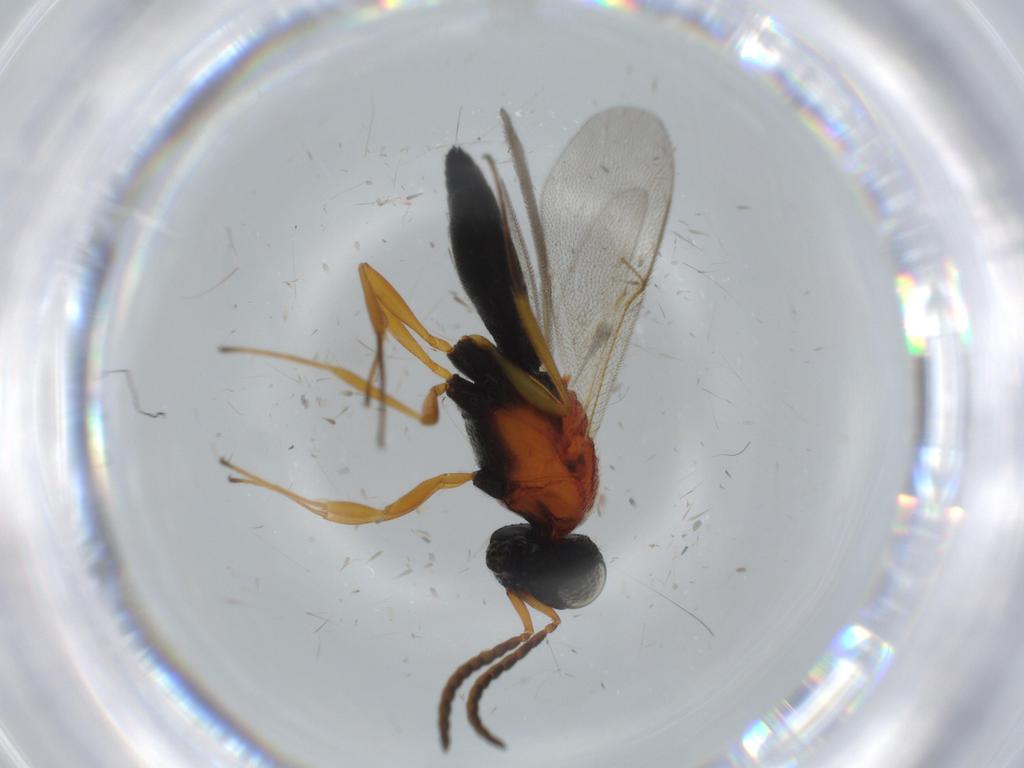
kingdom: Animalia
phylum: Arthropoda
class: Insecta
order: Hymenoptera
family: Scelionidae
